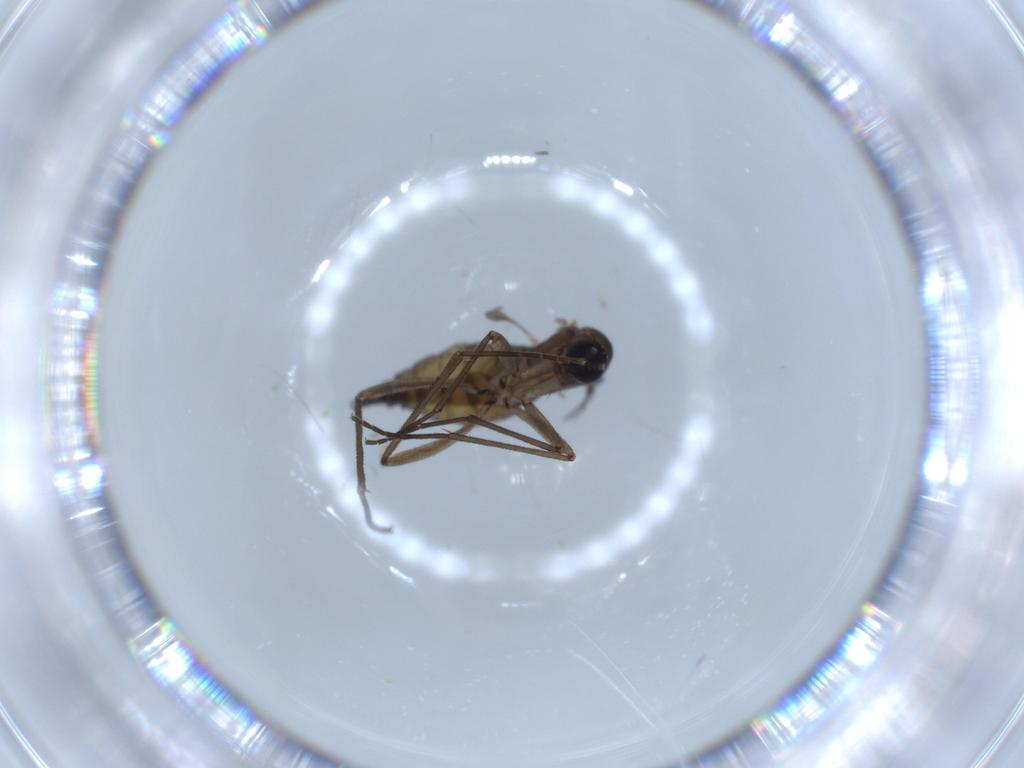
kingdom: Animalia
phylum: Arthropoda
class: Insecta
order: Diptera
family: Sciaridae
